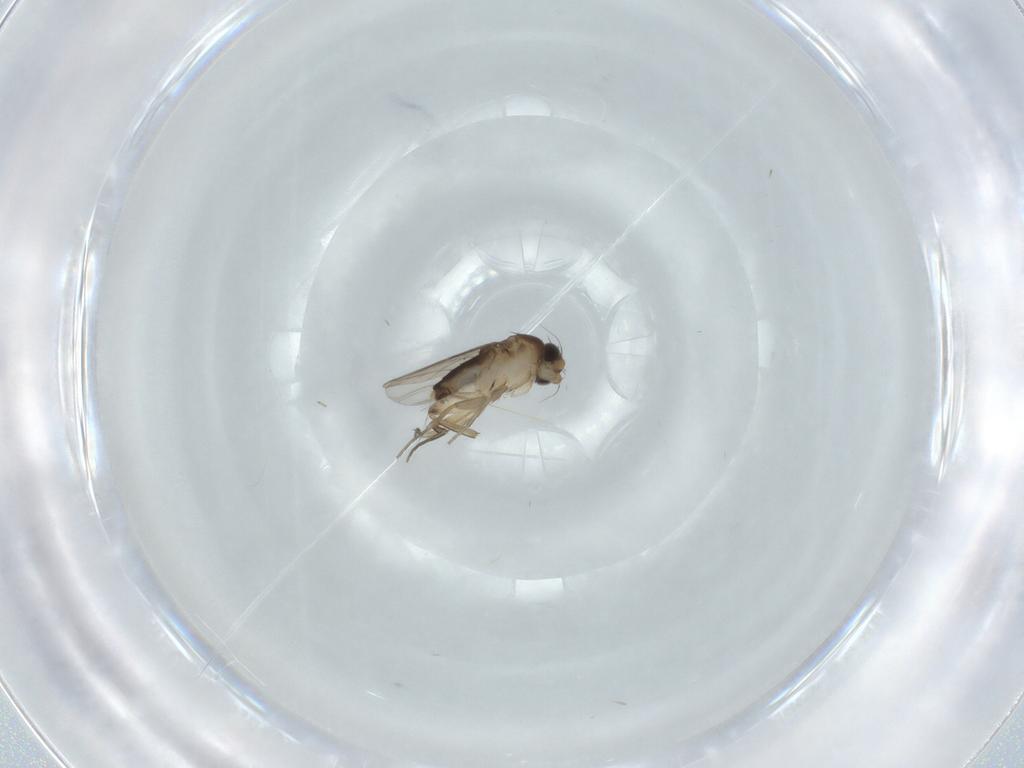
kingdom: Animalia
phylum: Arthropoda
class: Insecta
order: Diptera
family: Phoridae
